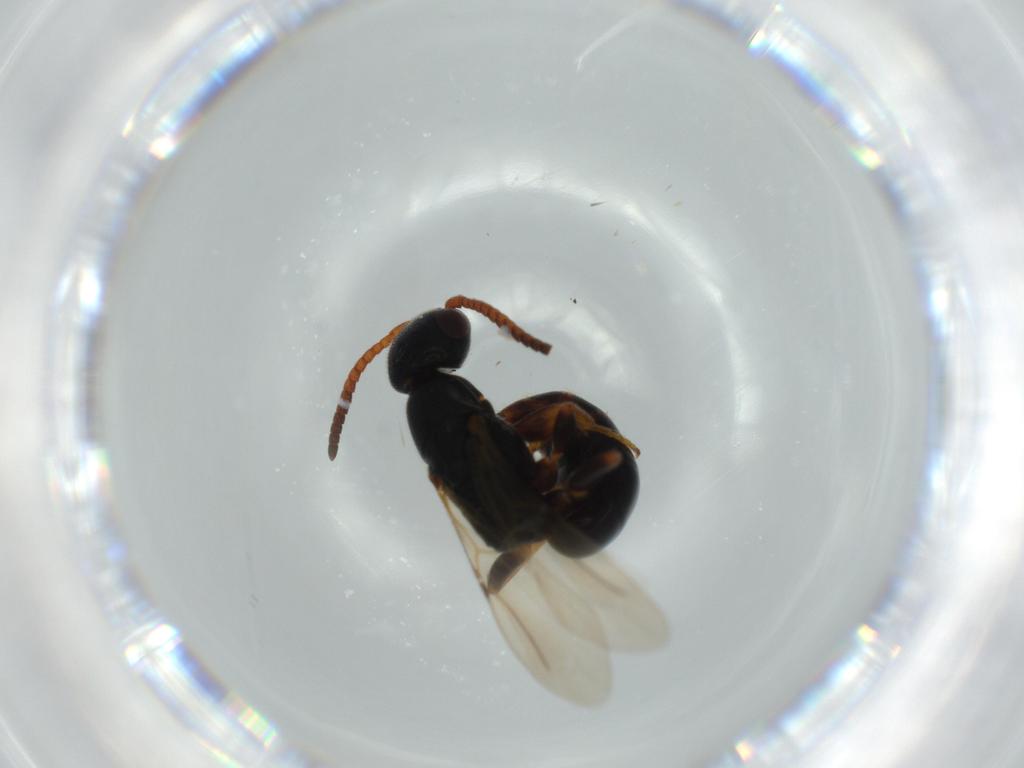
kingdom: Animalia
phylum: Arthropoda
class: Insecta
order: Hymenoptera
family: Bethylidae
